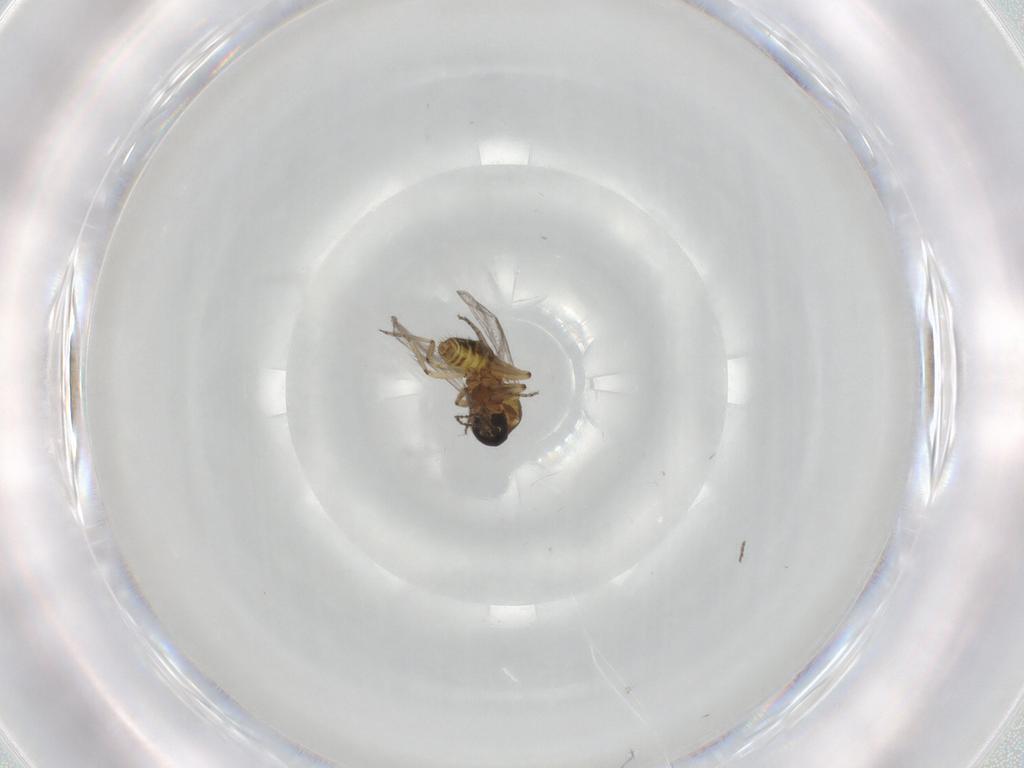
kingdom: Animalia
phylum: Arthropoda
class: Insecta
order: Diptera
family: Ceratopogonidae
